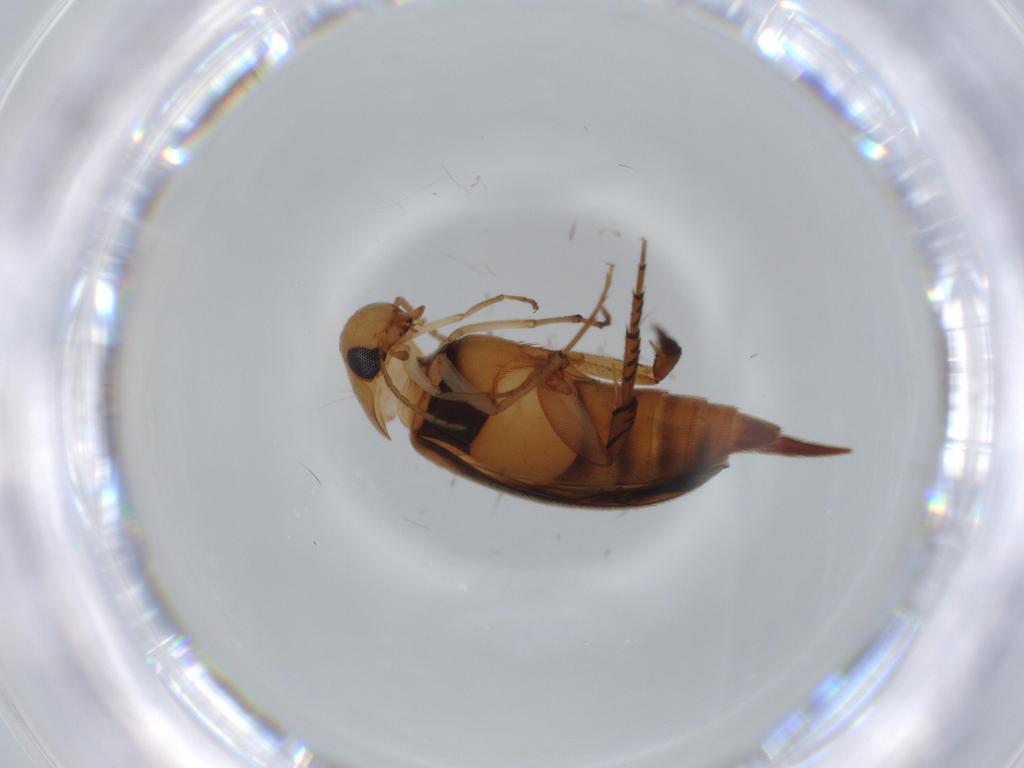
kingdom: Animalia
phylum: Arthropoda
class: Insecta
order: Coleoptera
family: Mordellidae
